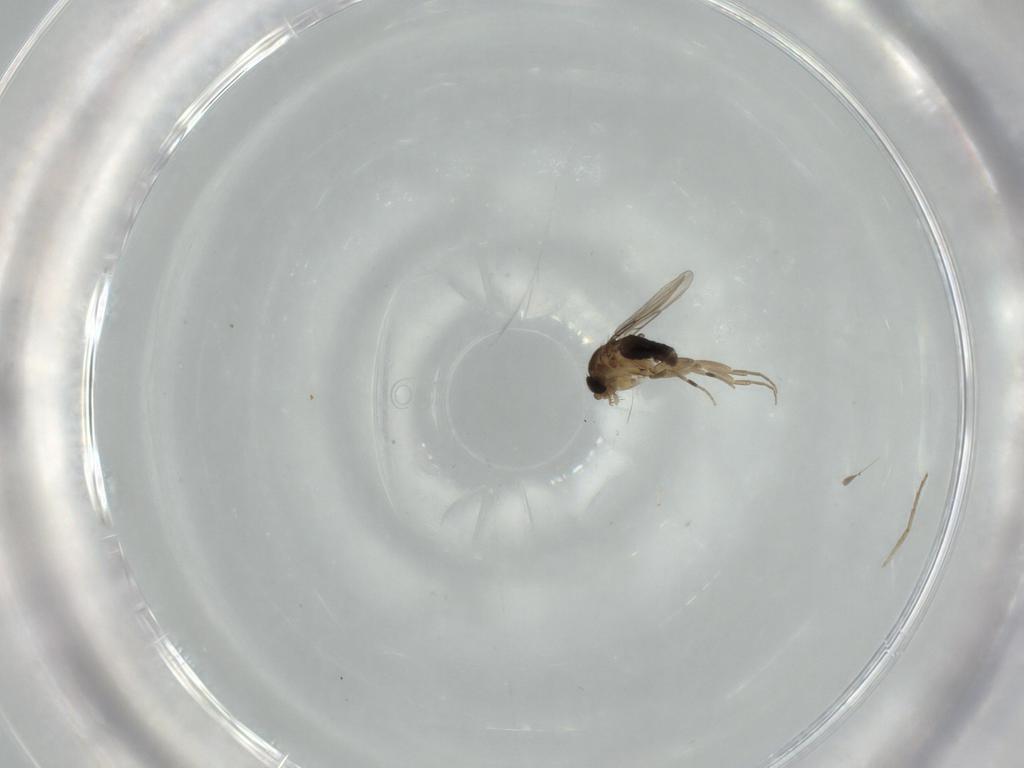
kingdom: Animalia
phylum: Arthropoda
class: Insecta
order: Diptera
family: Phoridae
